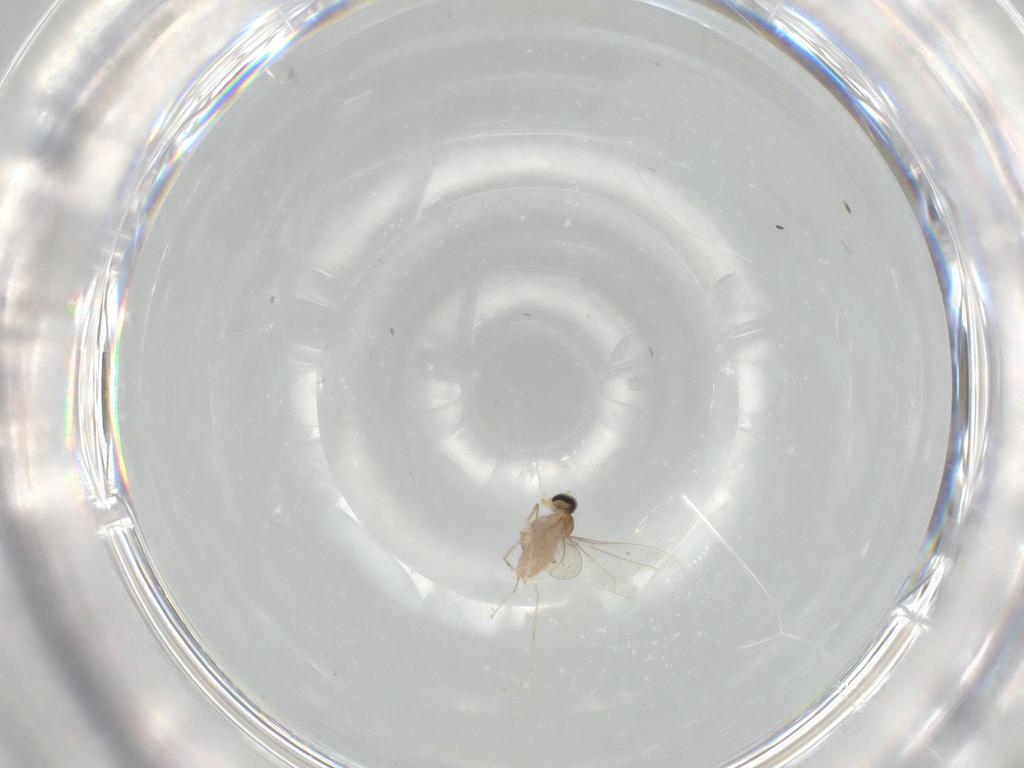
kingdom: Animalia
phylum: Arthropoda
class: Insecta
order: Diptera
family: Cecidomyiidae
